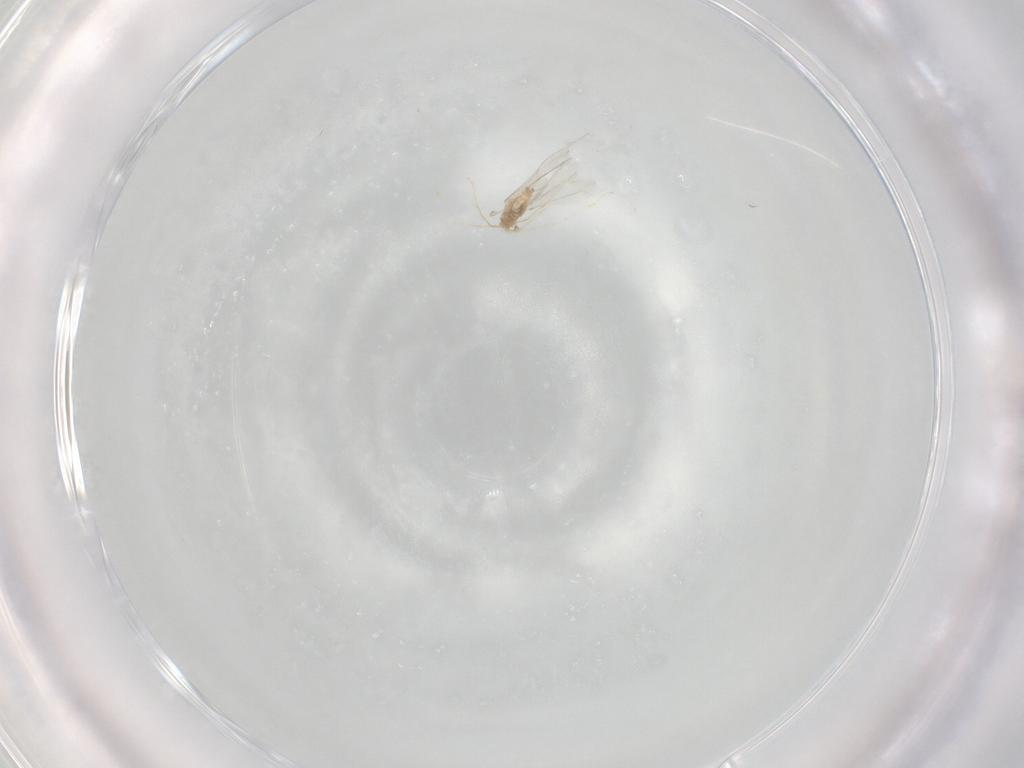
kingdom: Animalia
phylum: Arthropoda
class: Insecta
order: Diptera
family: Cecidomyiidae
